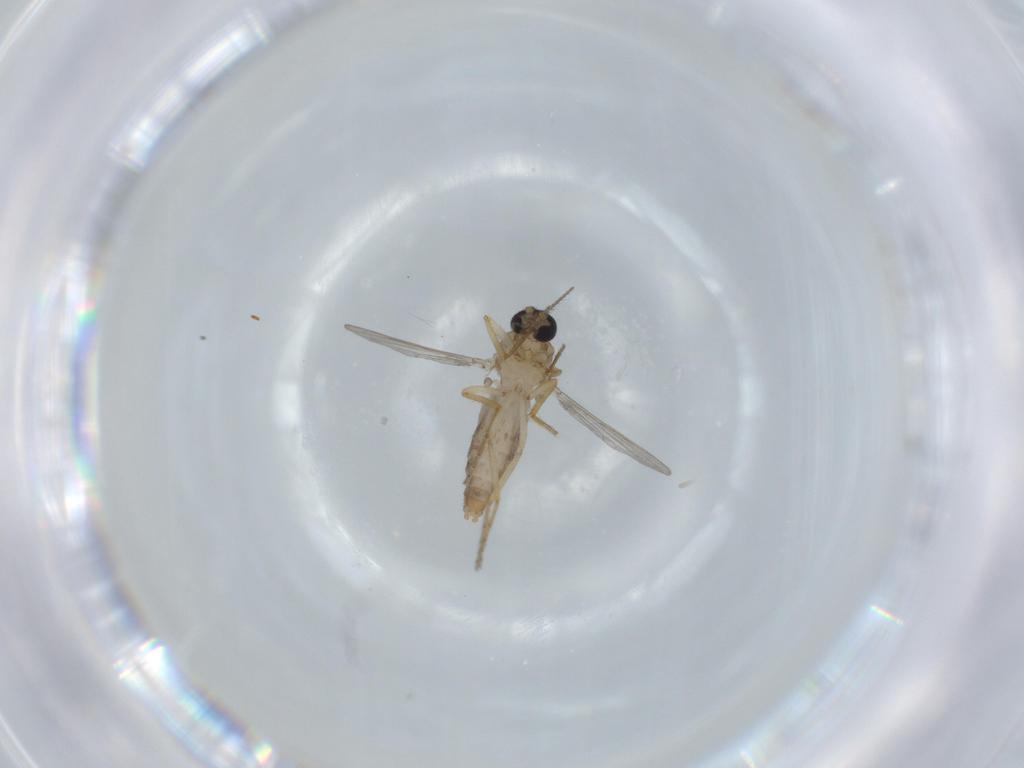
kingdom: Animalia
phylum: Arthropoda
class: Insecta
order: Diptera
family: Ceratopogonidae
